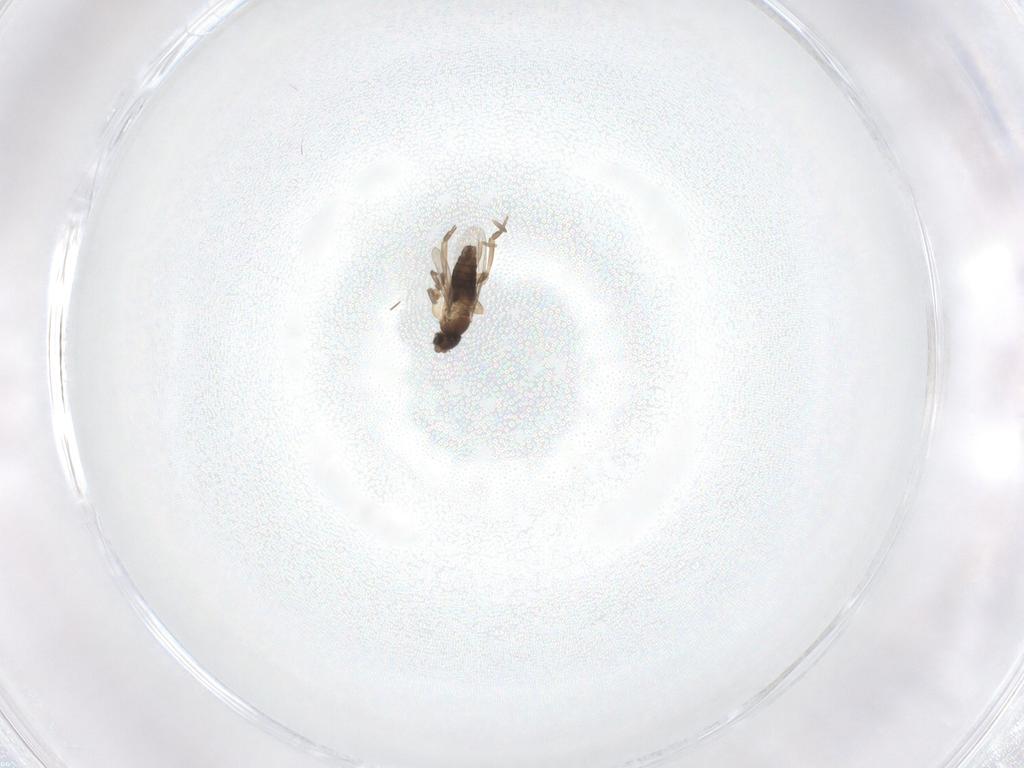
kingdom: Animalia
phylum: Arthropoda
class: Insecta
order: Diptera
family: Phoridae
